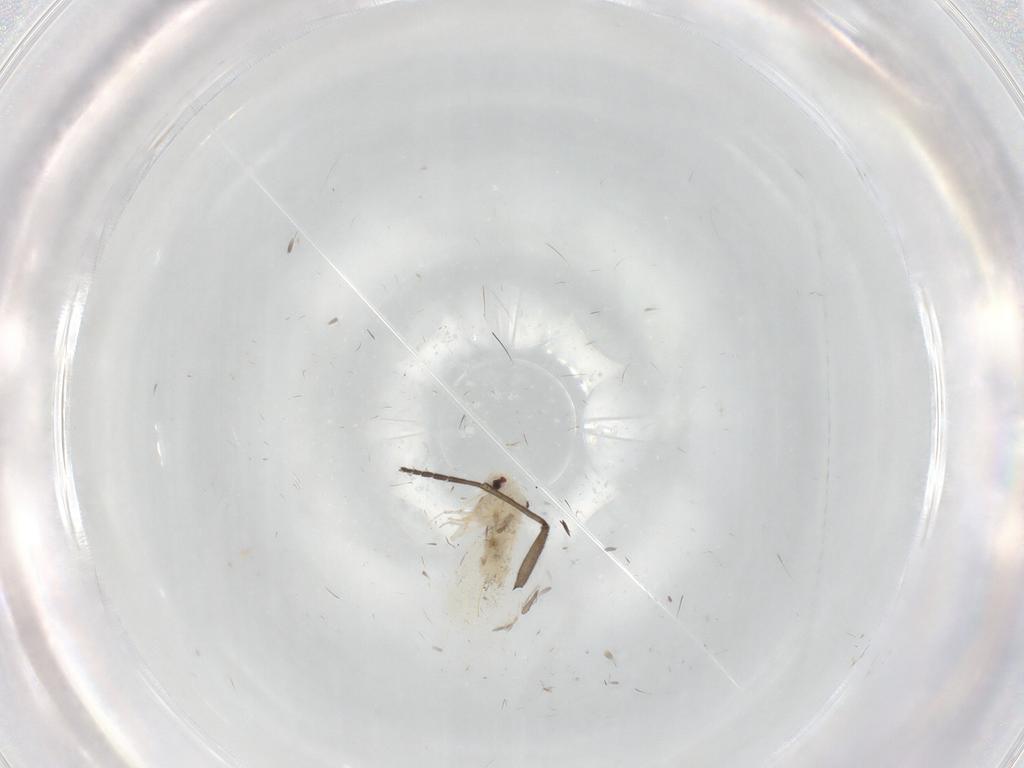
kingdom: Animalia
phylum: Arthropoda
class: Insecta
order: Hemiptera
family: Aleyrodidae
